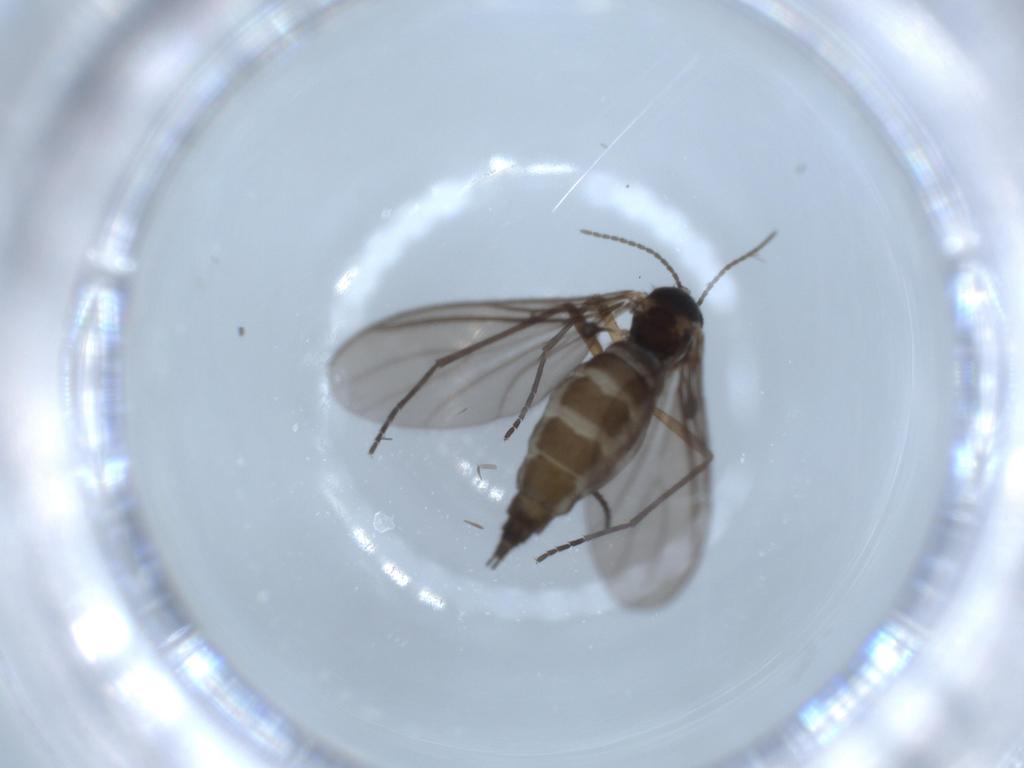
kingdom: Animalia
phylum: Arthropoda
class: Insecta
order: Diptera
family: Sciaridae
